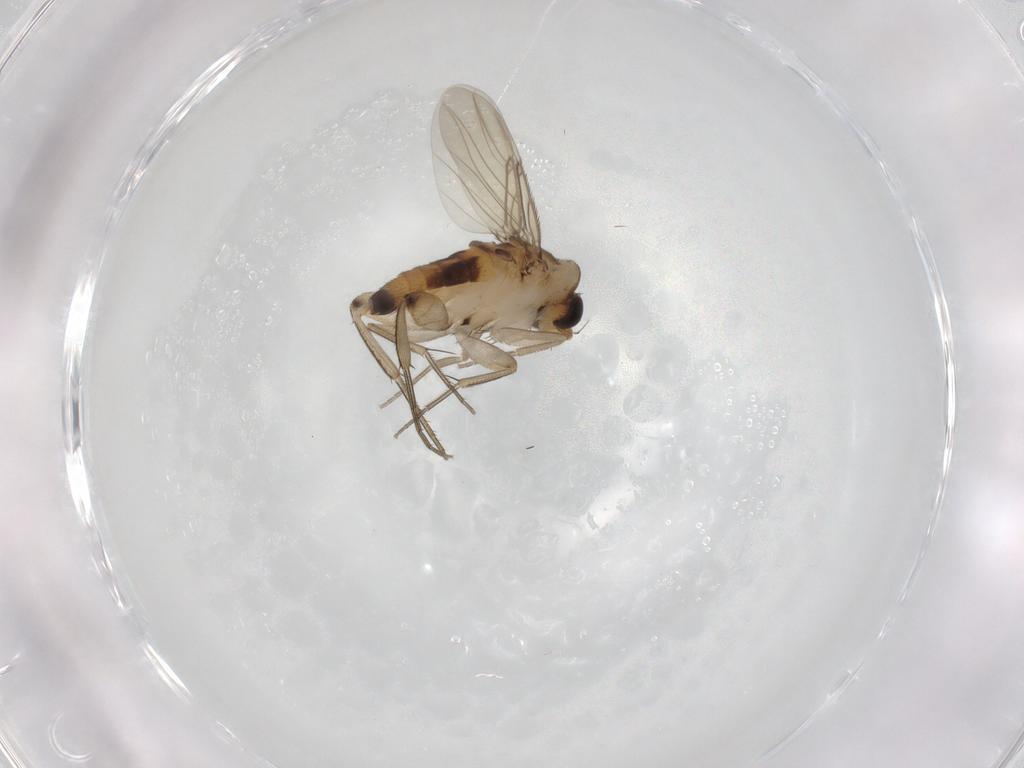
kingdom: Animalia
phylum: Arthropoda
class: Insecta
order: Diptera
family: Phoridae
